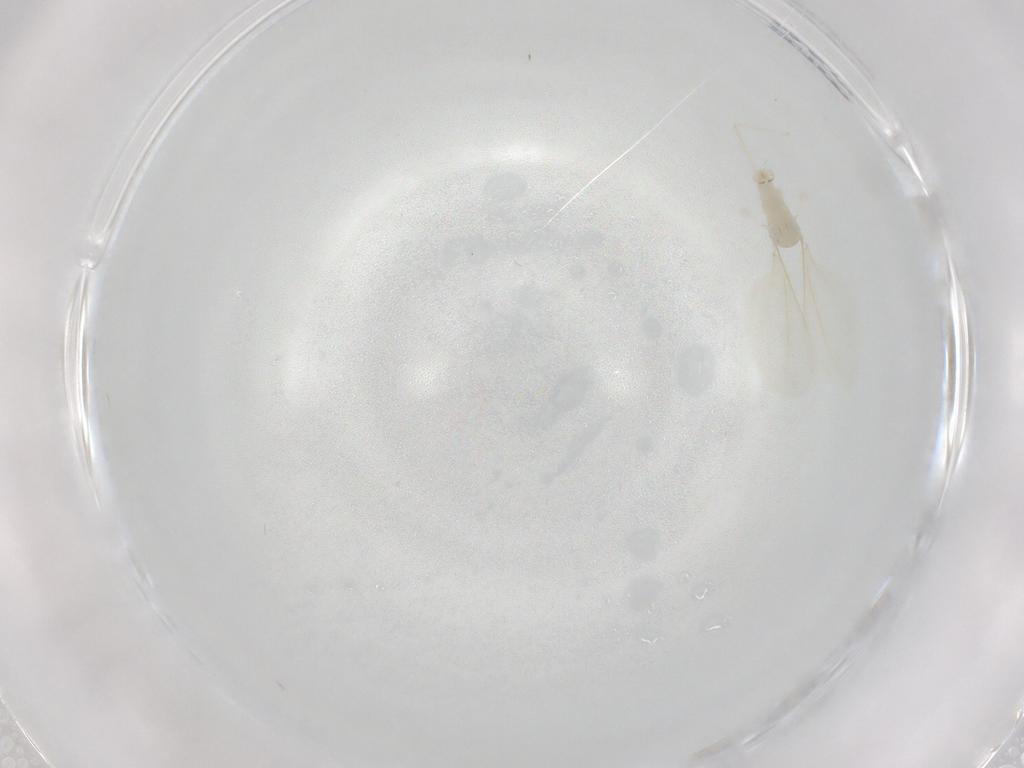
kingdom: Animalia
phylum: Arthropoda
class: Insecta
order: Diptera
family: Cecidomyiidae
